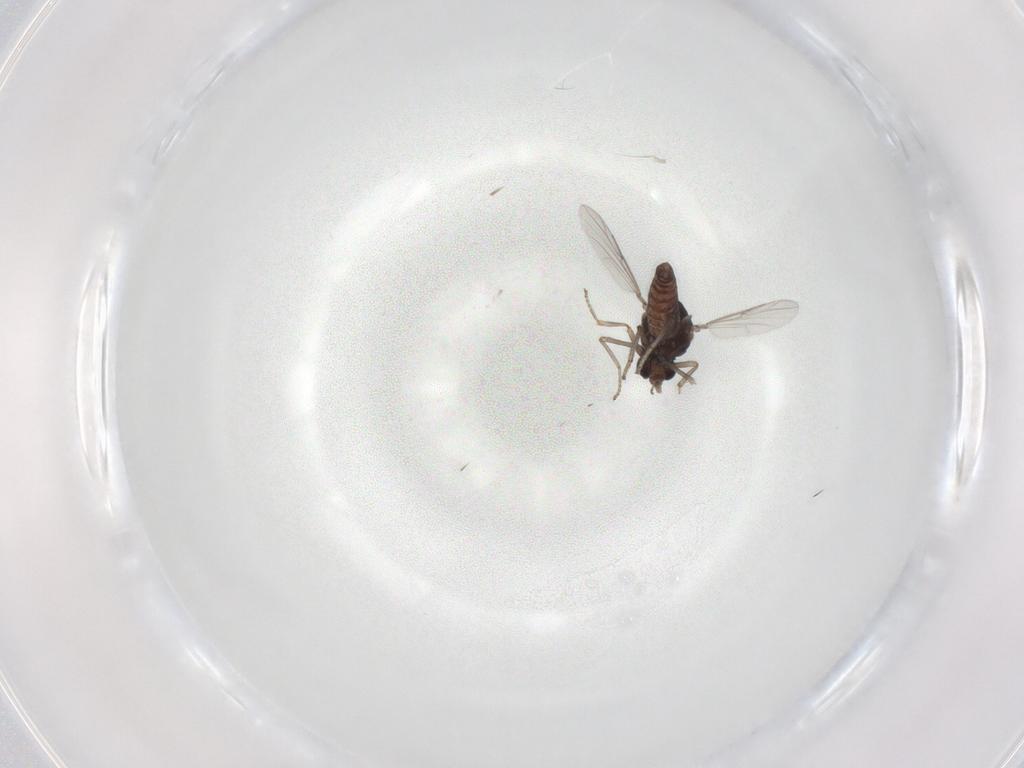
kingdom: Animalia
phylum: Arthropoda
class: Insecta
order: Diptera
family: Ceratopogonidae
